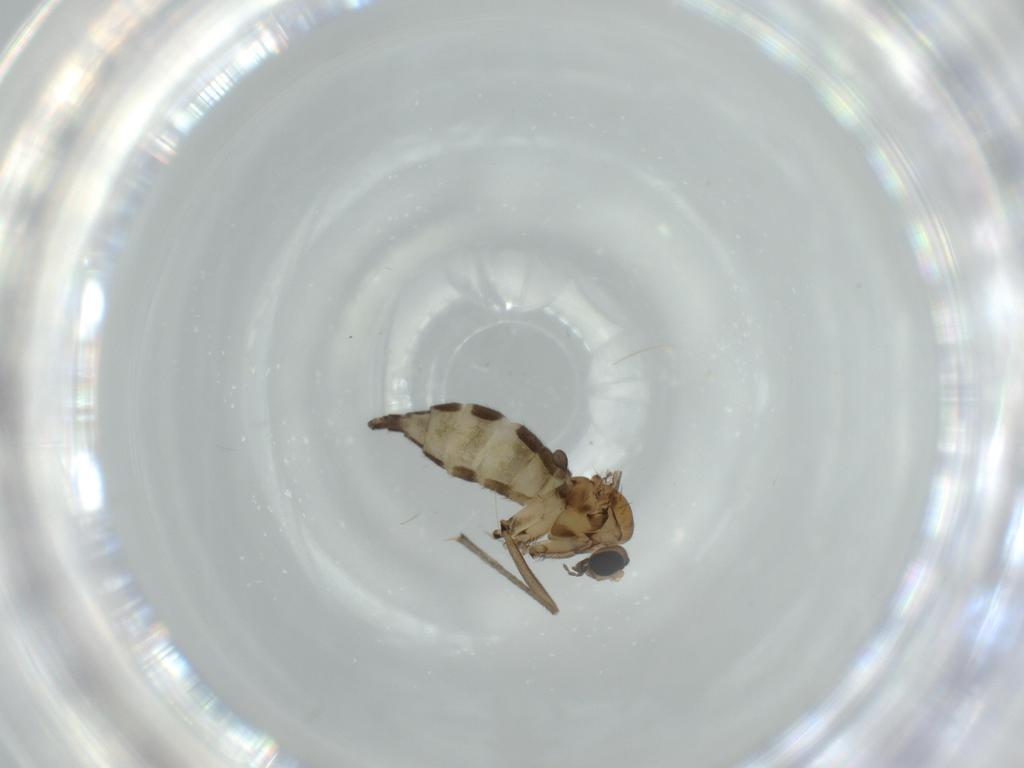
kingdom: Animalia
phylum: Arthropoda
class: Insecta
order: Diptera
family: Sciaridae
